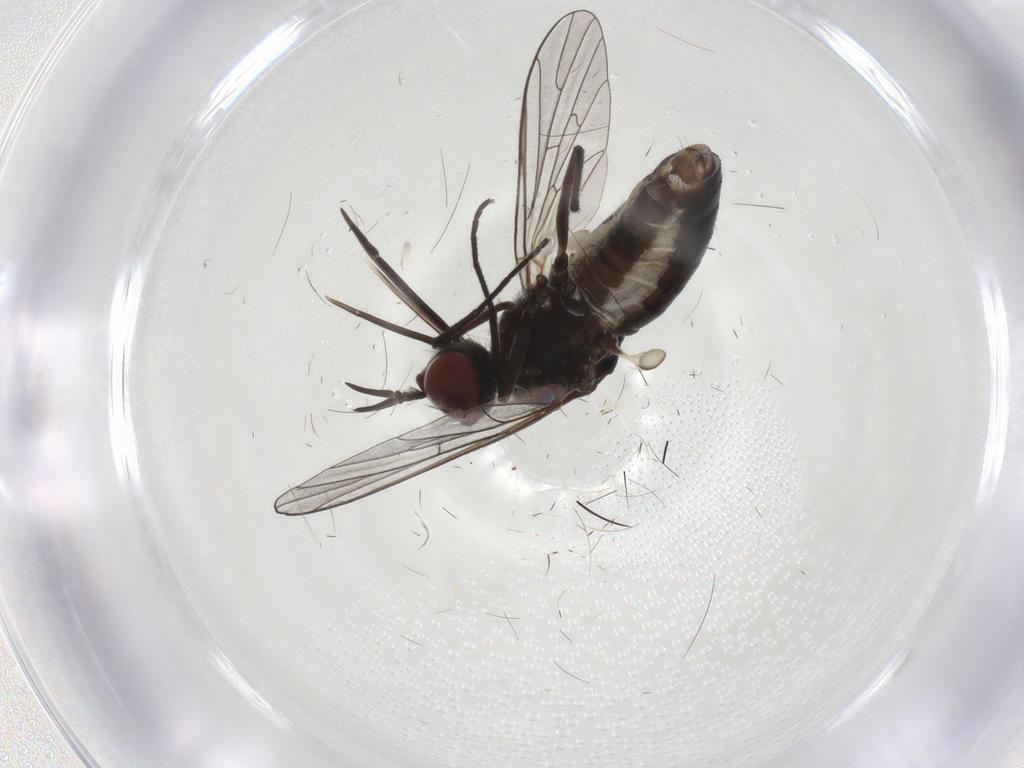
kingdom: Animalia
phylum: Arthropoda
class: Insecta
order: Diptera
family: Bombyliidae
